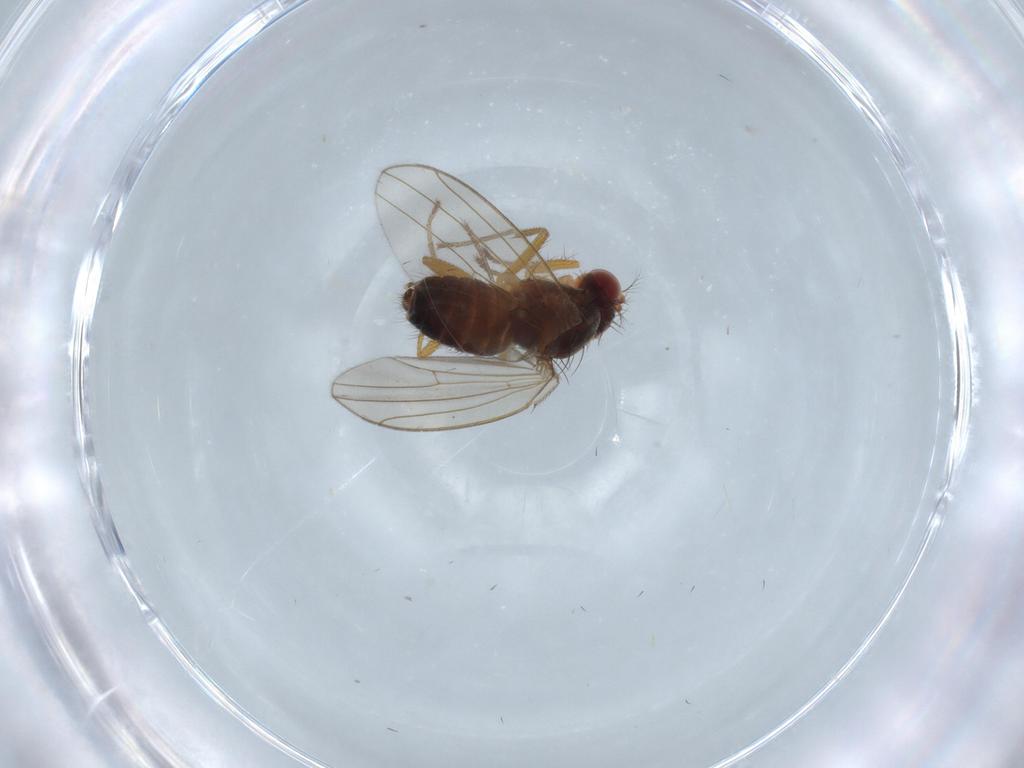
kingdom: Animalia
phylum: Arthropoda
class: Insecta
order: Diptera
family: Drosophilidae
